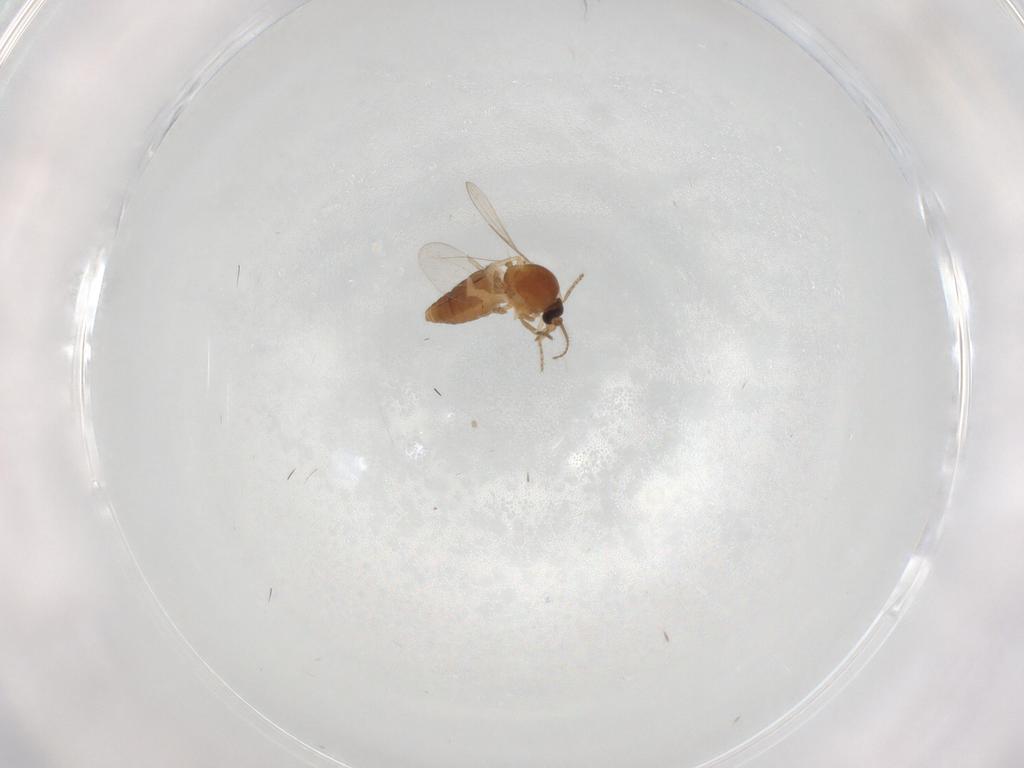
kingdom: Animalia
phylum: Arthropoda
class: Insecta
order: Diptera
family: Ceratopogonidae
